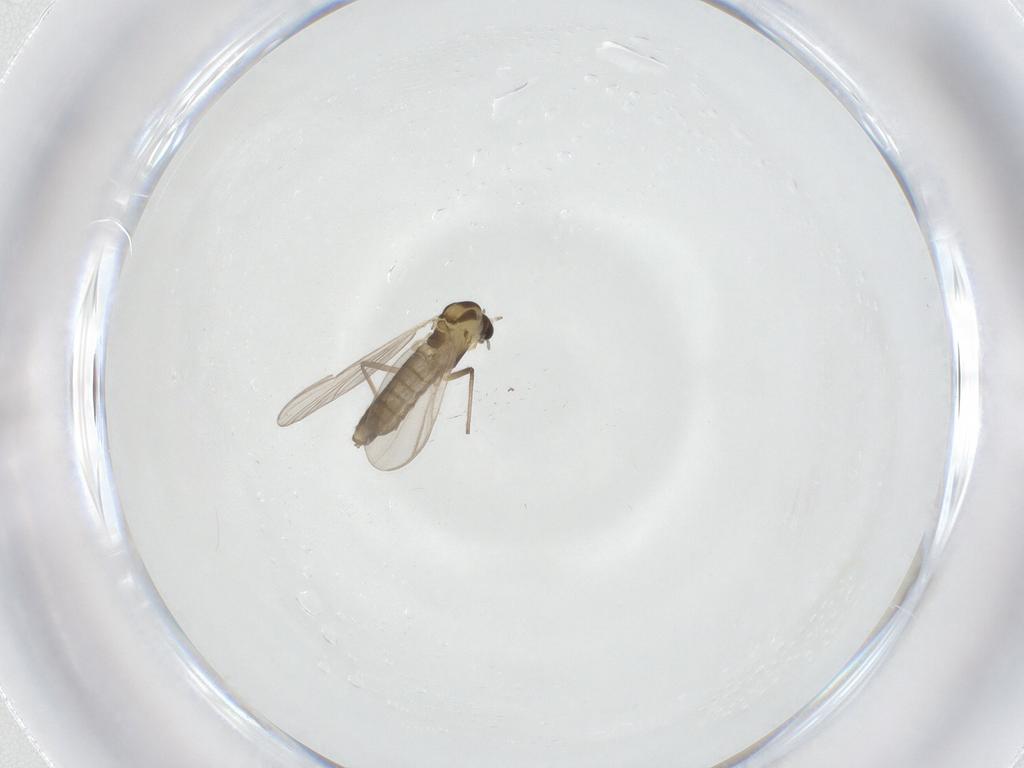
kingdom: Animalia
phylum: Arthropoda
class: Insecta
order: Diptera
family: Chironomidae
